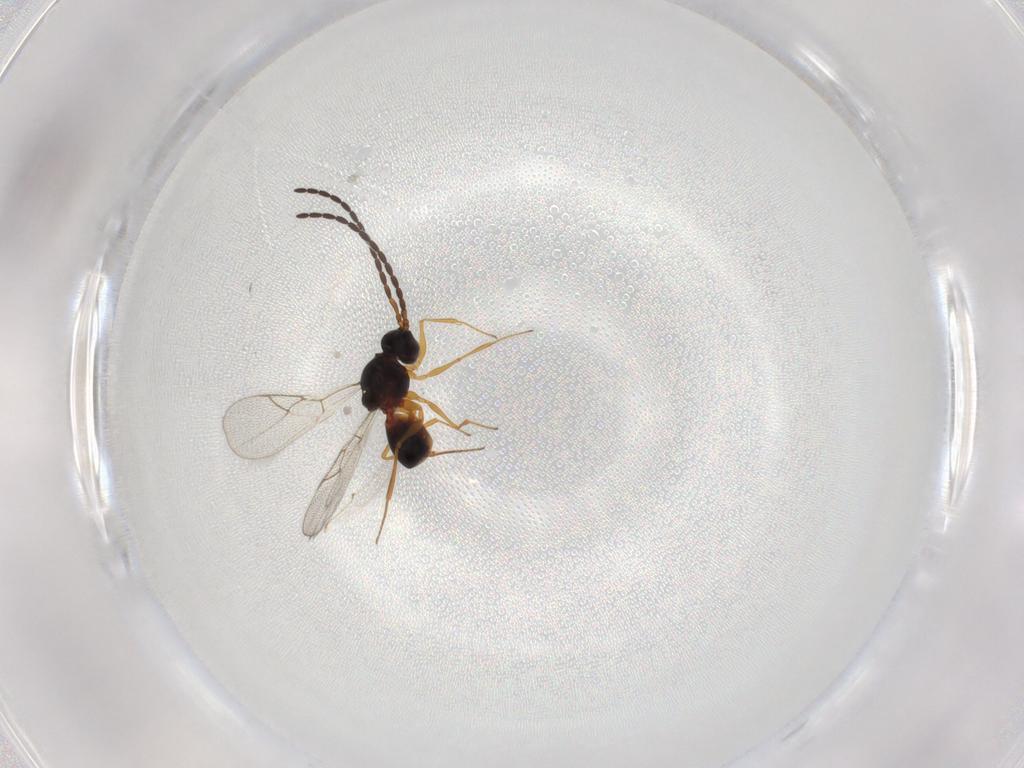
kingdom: Animalia
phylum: Arthropoda
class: Insecta
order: Hymenoptera
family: Figitidae
